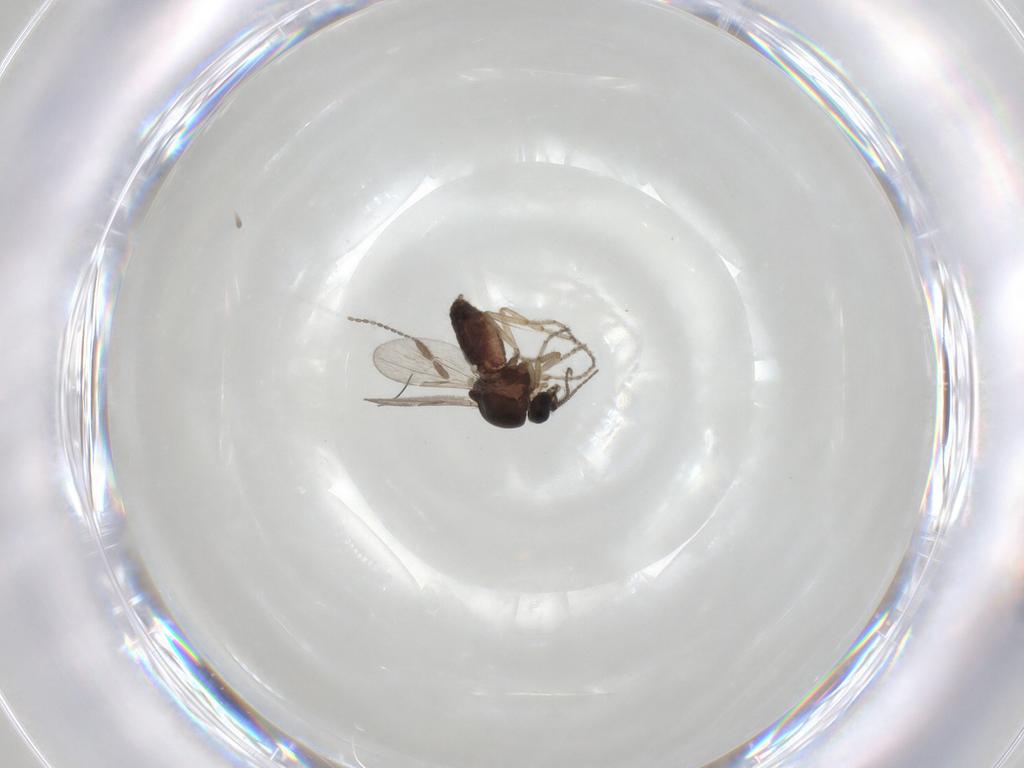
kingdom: Animalia
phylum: Arthropoda
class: Insecta
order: Diptera
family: Ceratopogonidae
